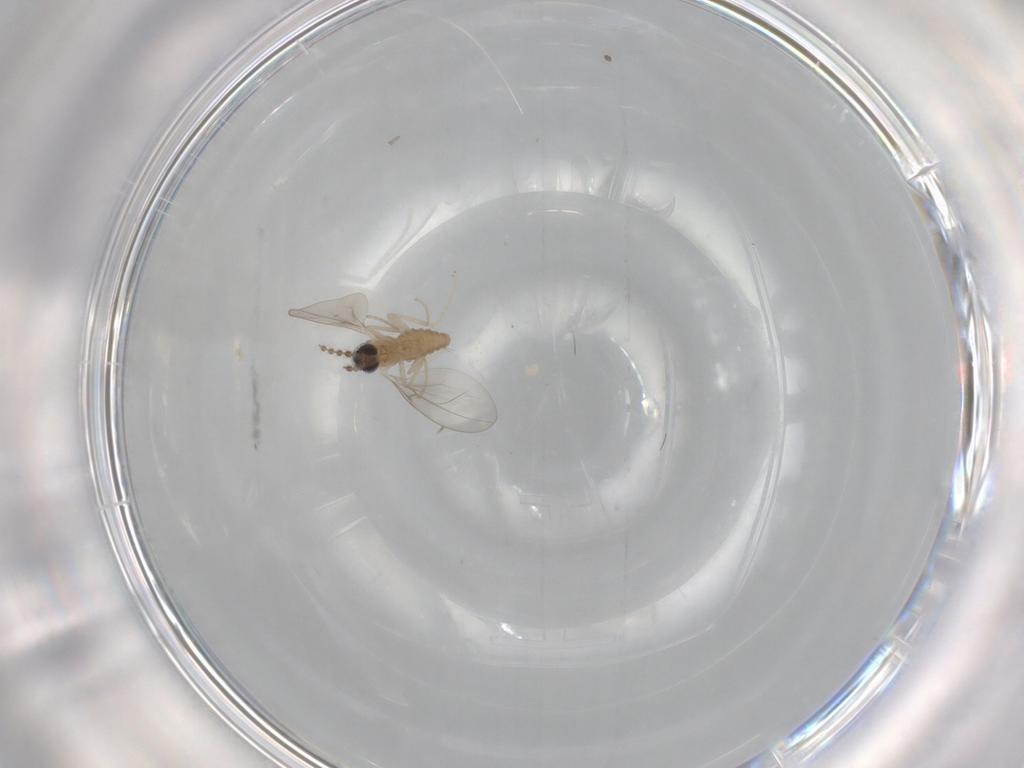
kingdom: Animalia
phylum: Arthropoda
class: Insecta
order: Diptera
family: Cecidomyiidae
